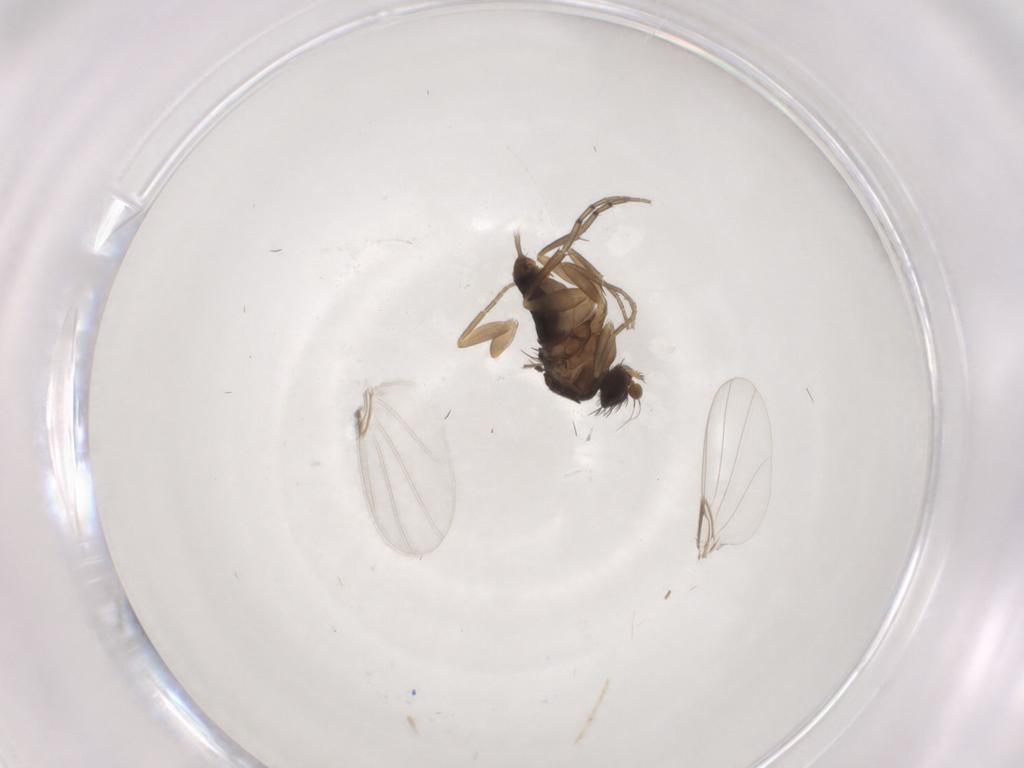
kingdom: Animalia
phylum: Arthropoda
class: Insecta
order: Diptera
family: Phoridae
